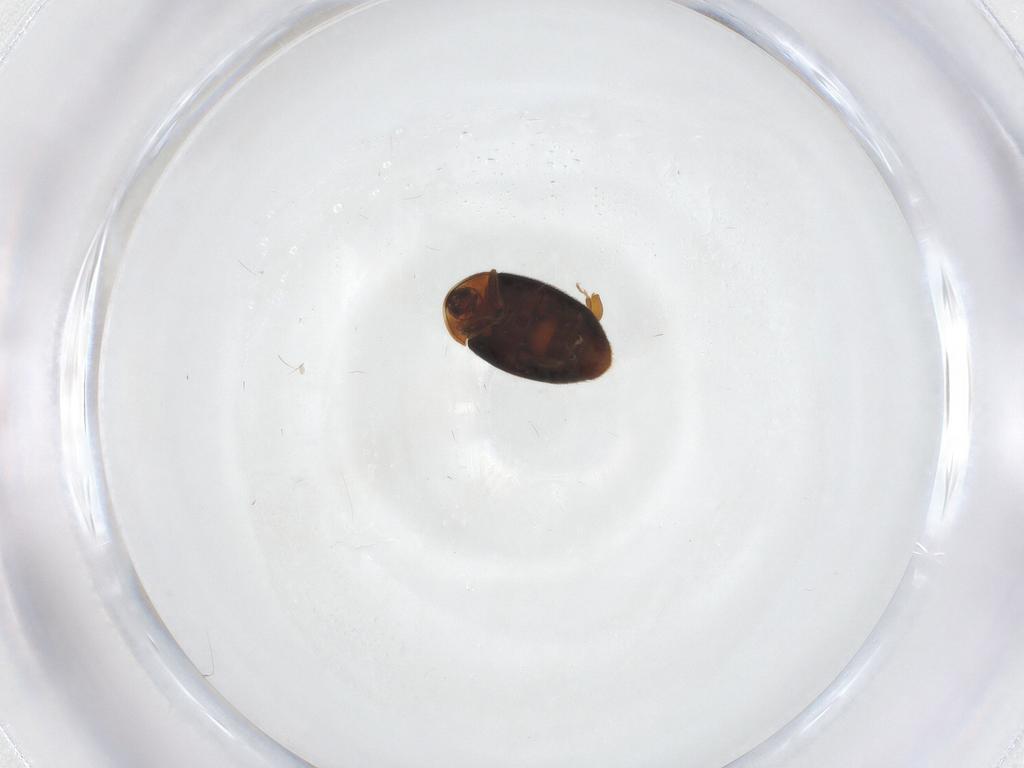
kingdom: Animalia
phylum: Arthropoda
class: Insecta
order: Coleoptera
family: Corylophidae
